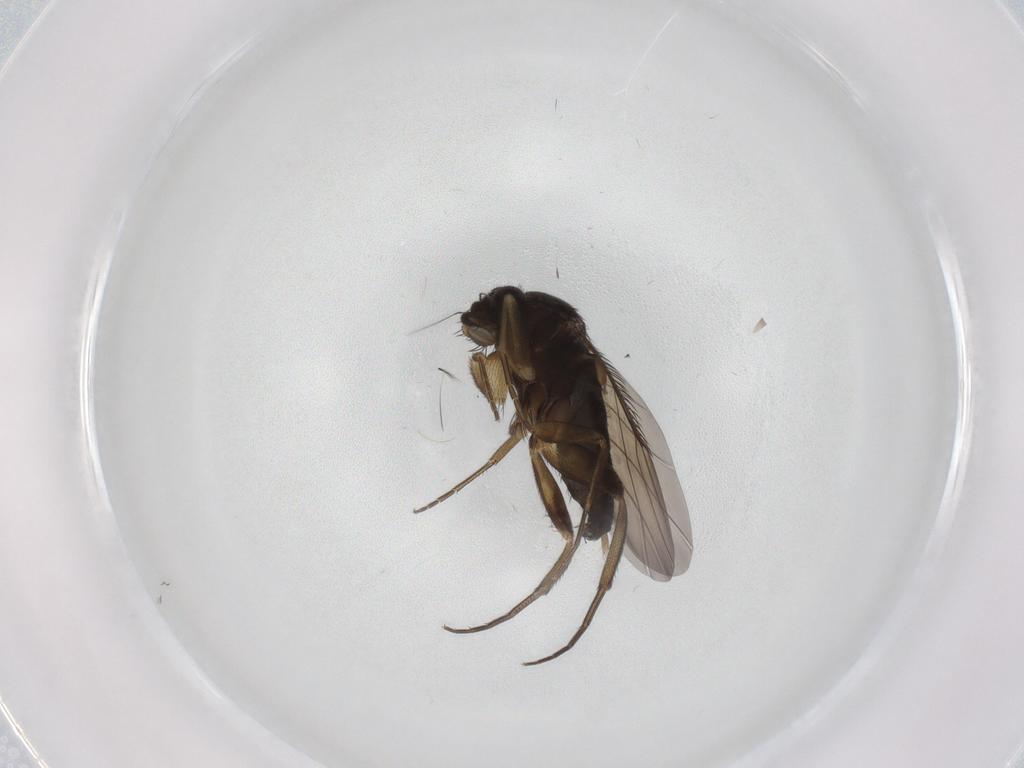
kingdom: Animalia
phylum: Arthropoda
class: Insecta
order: Diptera
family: Phoridae
